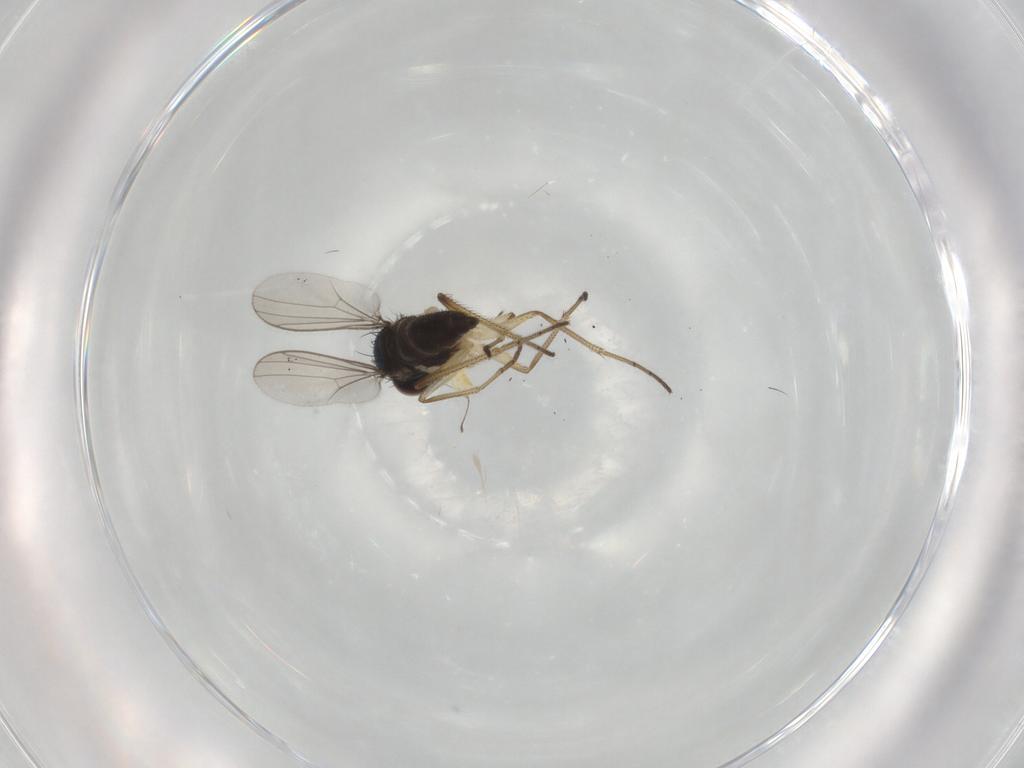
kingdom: Animalia
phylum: Arthropoda
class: Insecta
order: Diptera
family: Dolichopodidae
